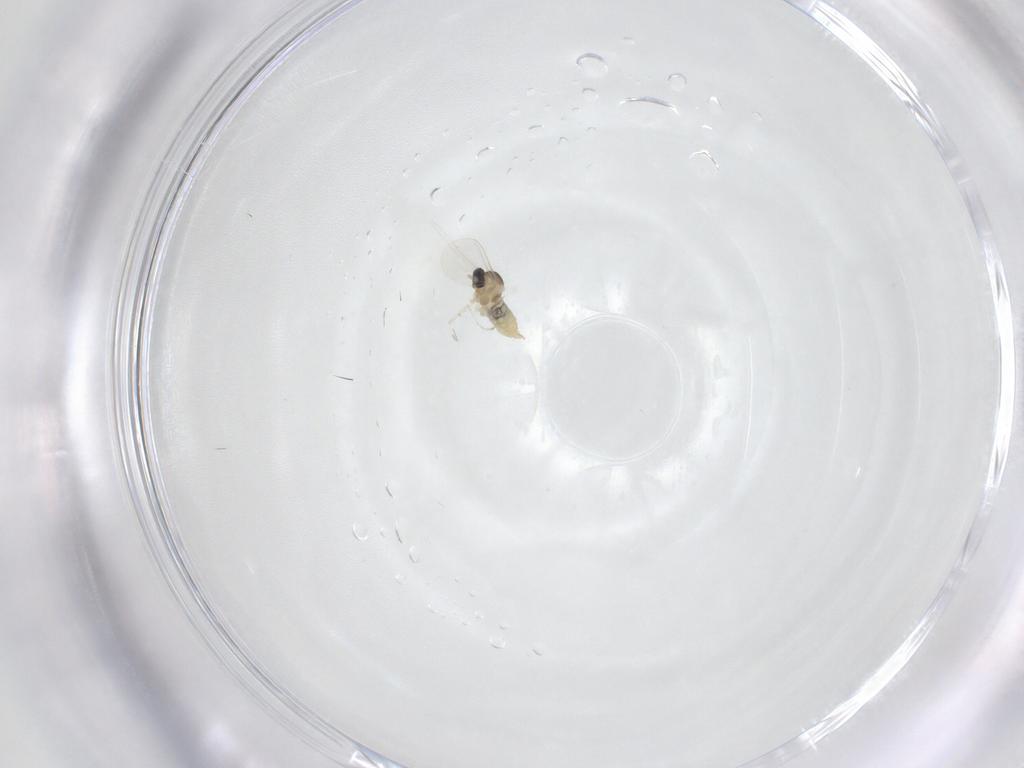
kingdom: Animalia
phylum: Arthropoda
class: Insecta
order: Diptera
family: Cecidomyiidae
